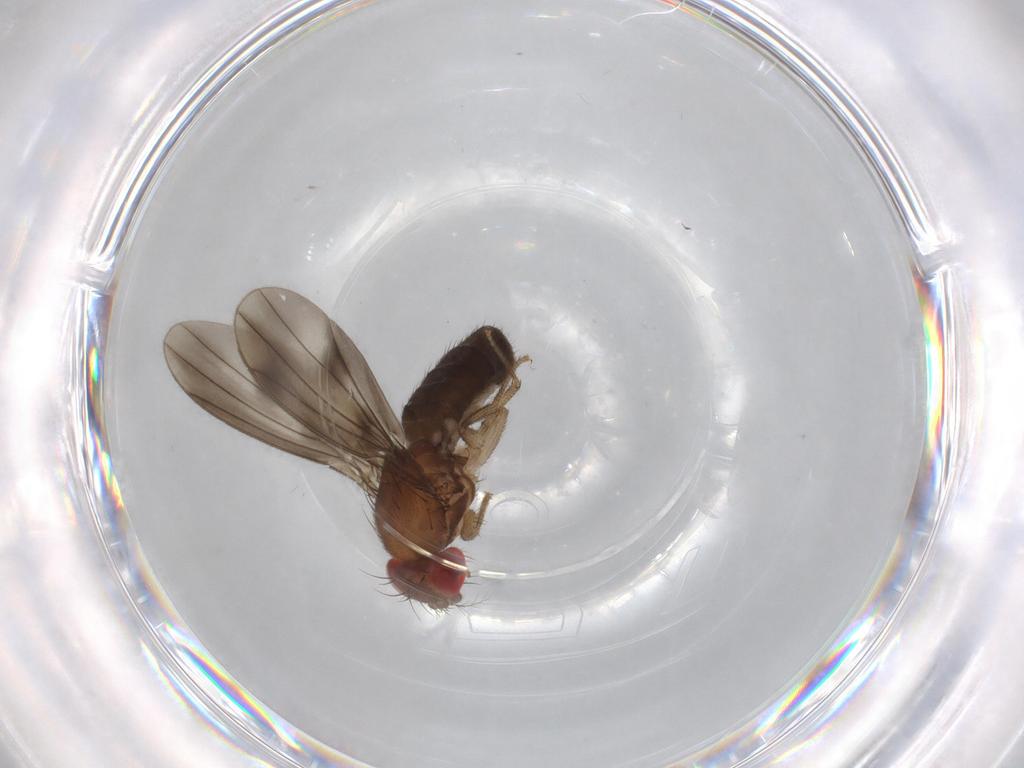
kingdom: Animalia
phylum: Arthropoda
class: Insecta
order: Diptera
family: Drosophilidae
